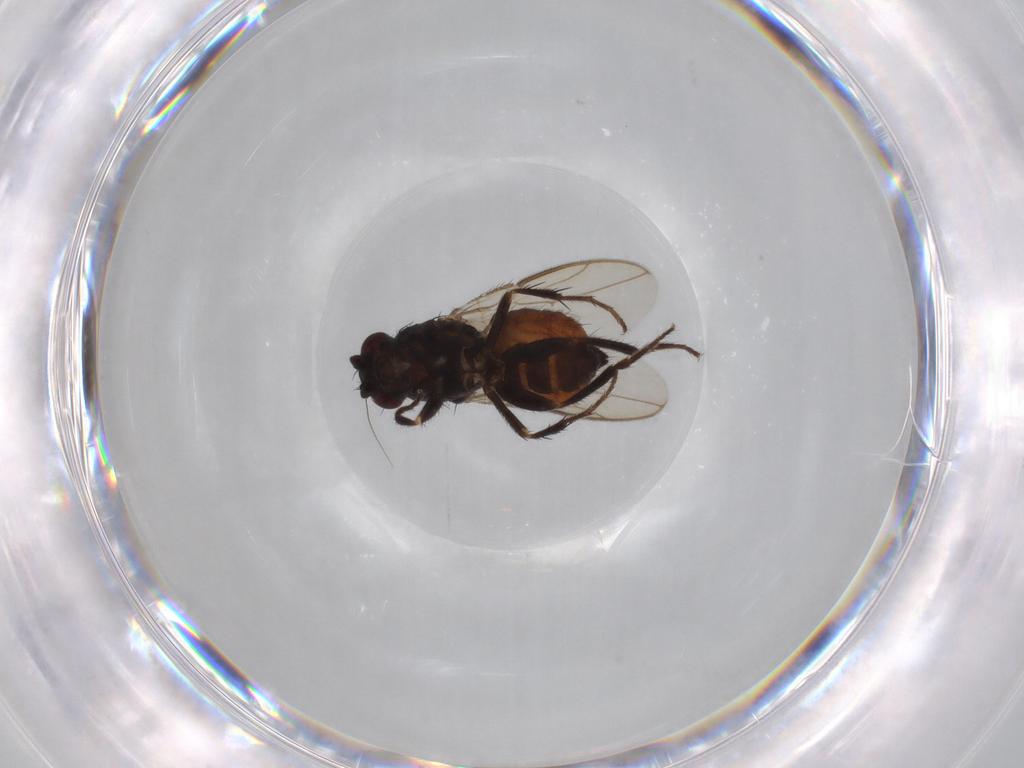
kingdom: Animalia
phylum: Arthropoda
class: Insecta
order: Diptera
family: Sphaeroceridae
